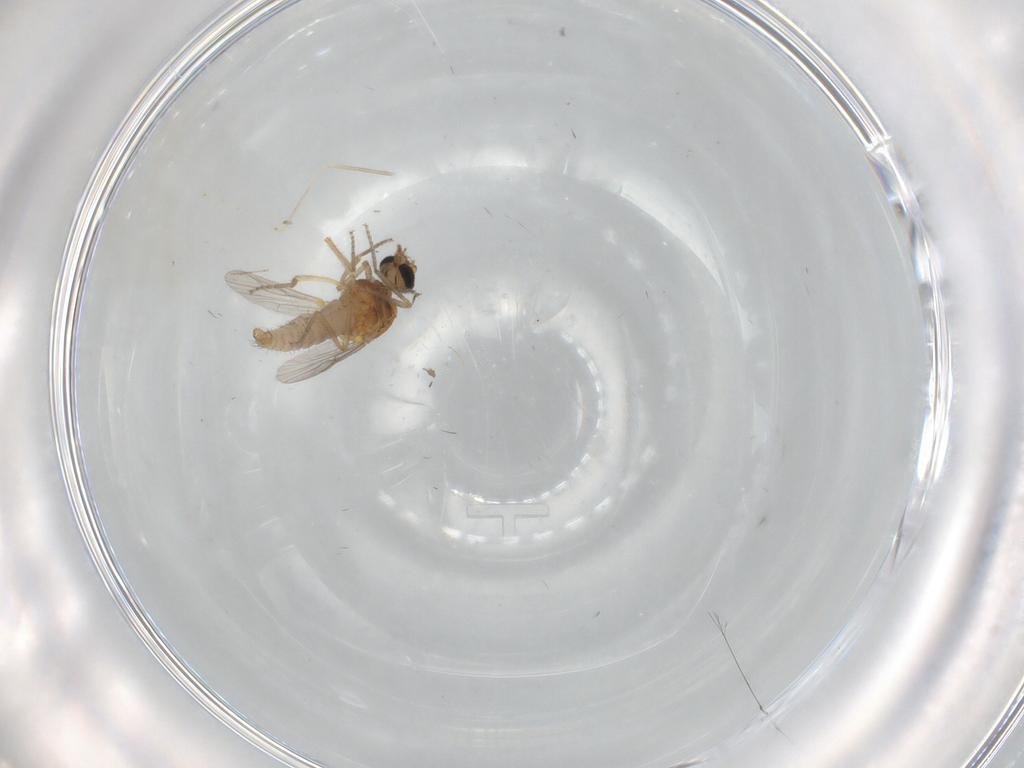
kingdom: Animalia
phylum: Arthropoda
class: Insecta
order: Diptera
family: Ceratopogonidae
